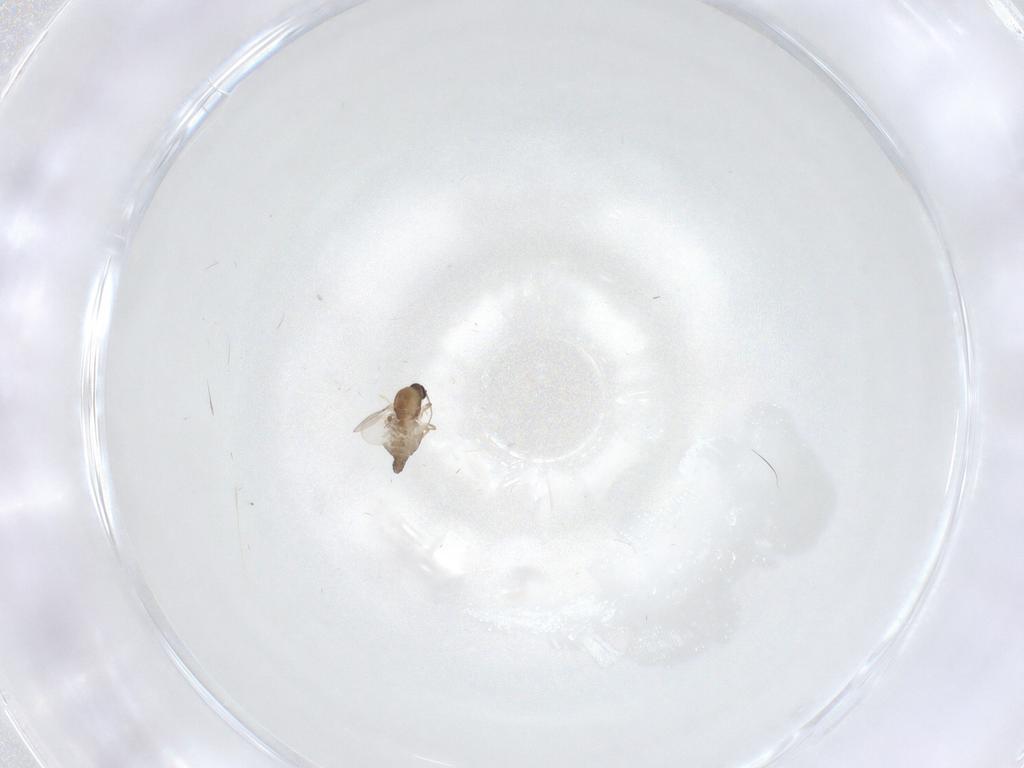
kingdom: Animalia
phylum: Arthropoda
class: Insecta
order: Diptera
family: Ceratopogonidae
